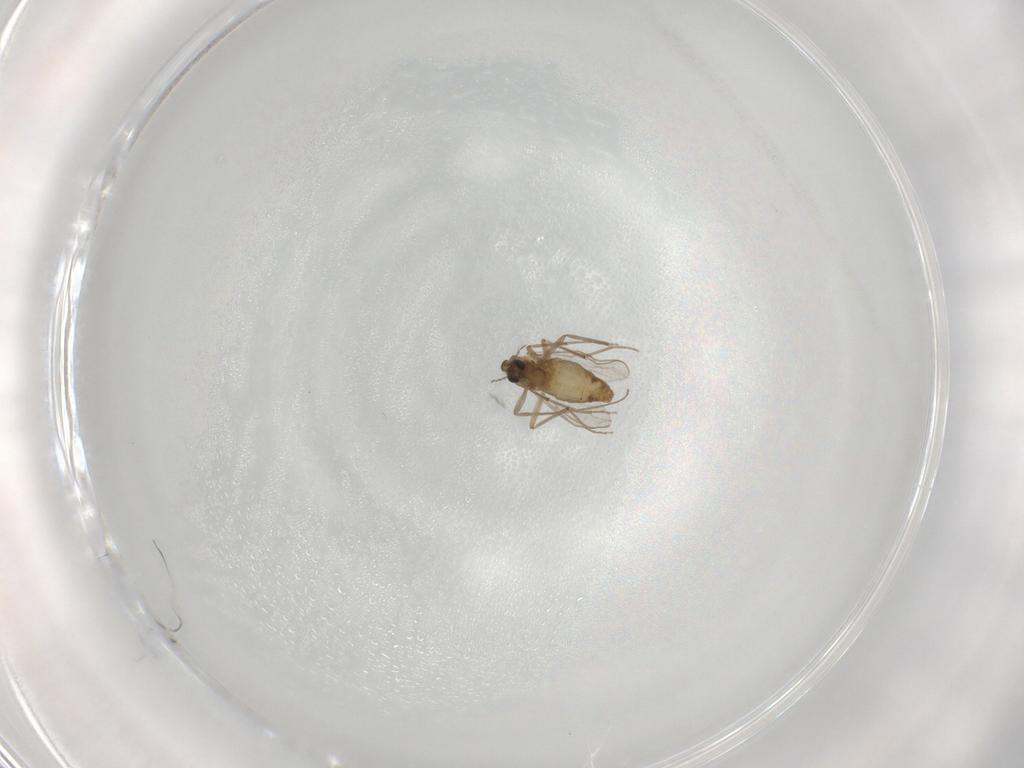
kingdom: Animalia
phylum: Arthropoda
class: Insecta
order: Diptera
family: Chironomidae
